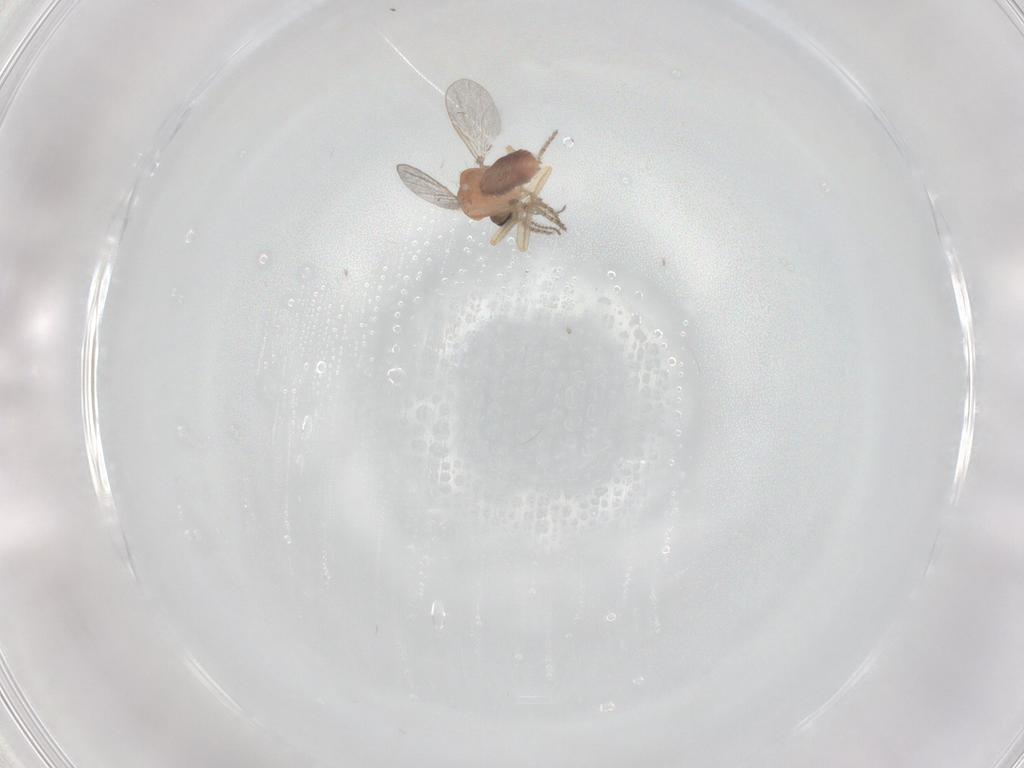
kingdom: Animalia
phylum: Arthropoda
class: Insecta
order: Diptera
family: Ceratopogonidae
